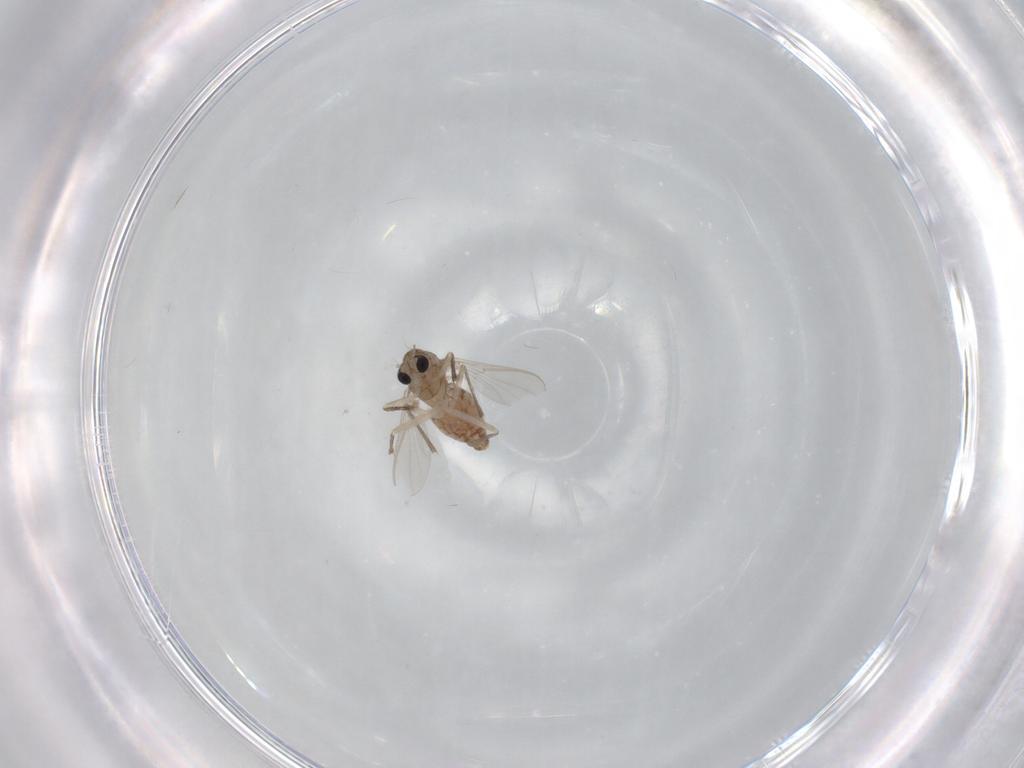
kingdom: Animalia
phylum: Arthropoda
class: Insecta
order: Diptera
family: Chironomidae
